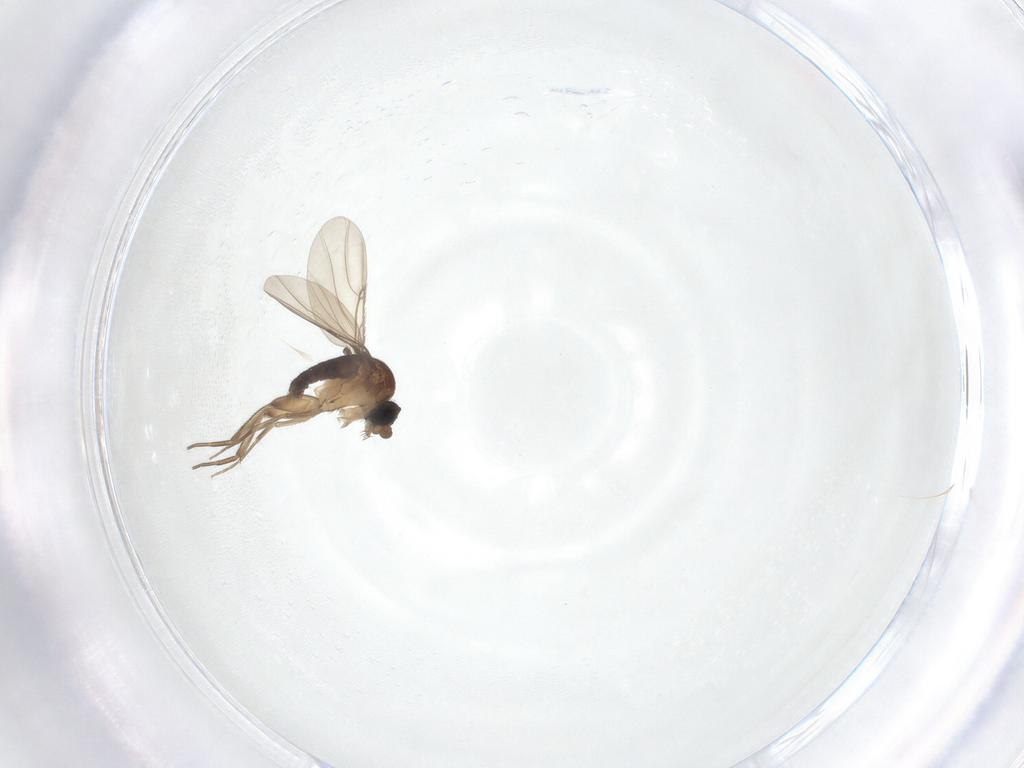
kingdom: Animalia
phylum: Arthropoda
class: Insecta
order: Diptera
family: Phoridae
